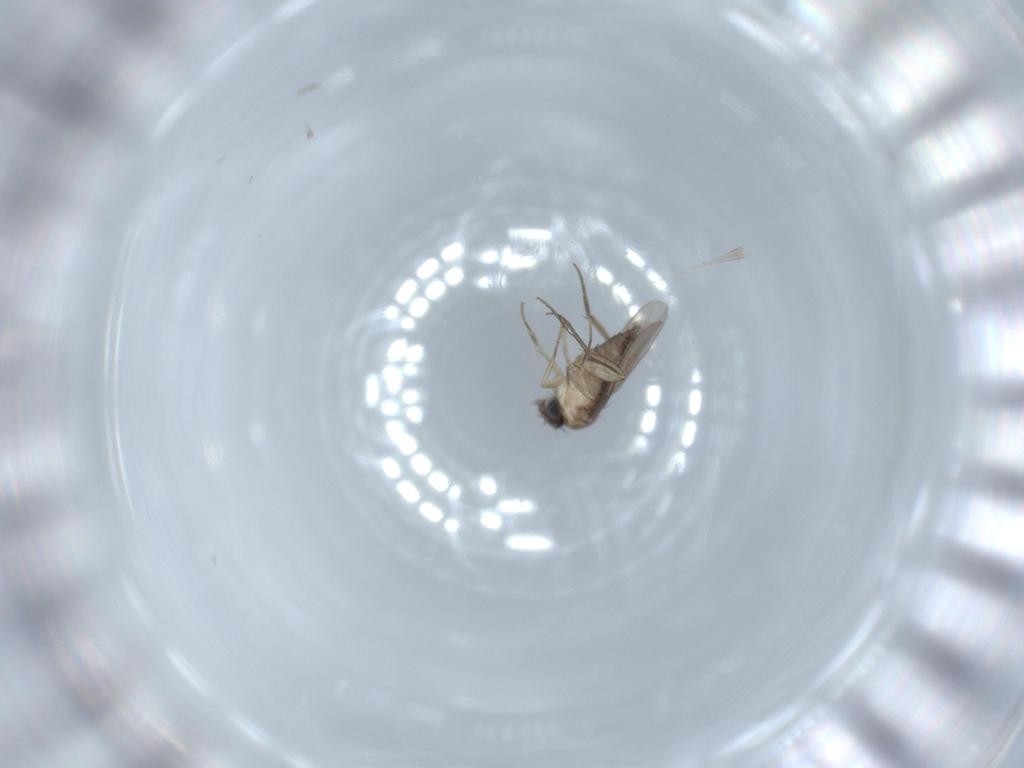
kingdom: Animalia
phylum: Arthropoda
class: Insecta
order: Diptera
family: Phoridae
